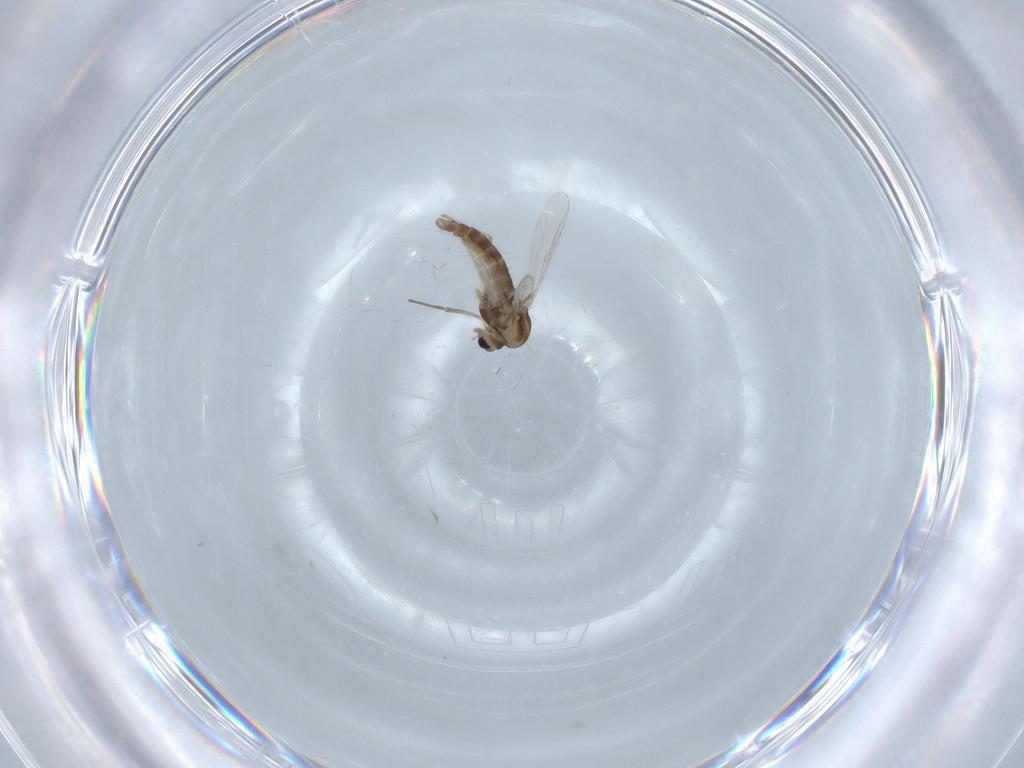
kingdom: Animalia
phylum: Arthropoda
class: Insecta
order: Diptera
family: Chironomidae
